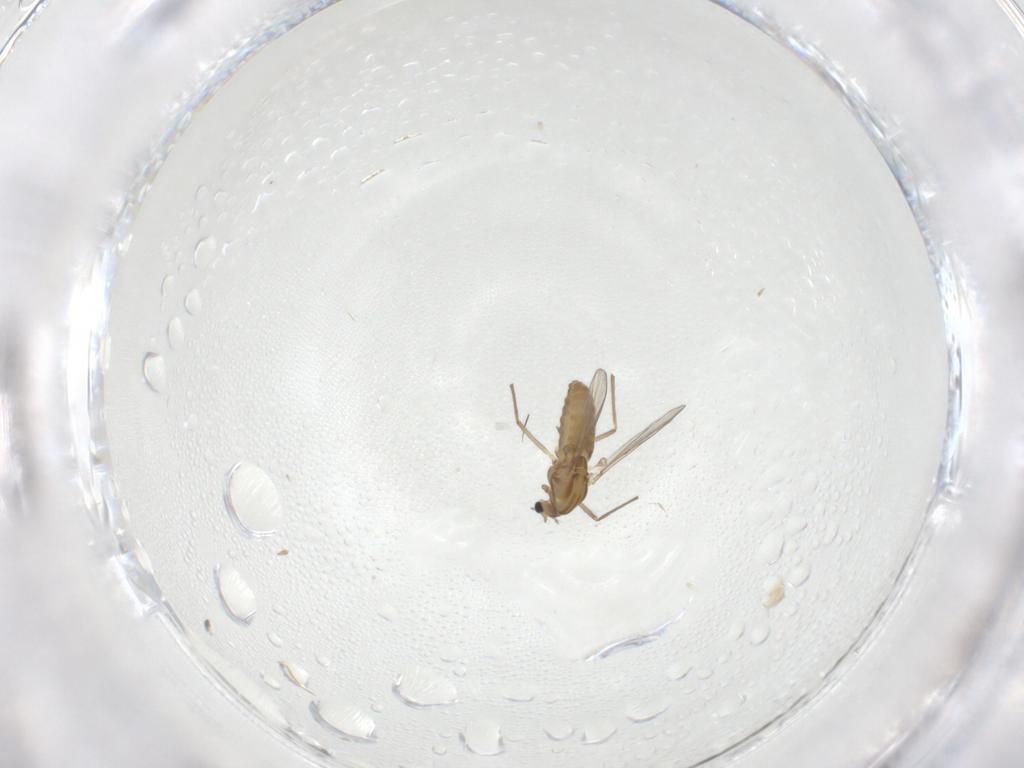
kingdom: Animalia
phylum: Arthropoda
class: Insecta
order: Diptera
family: Chironomidae
